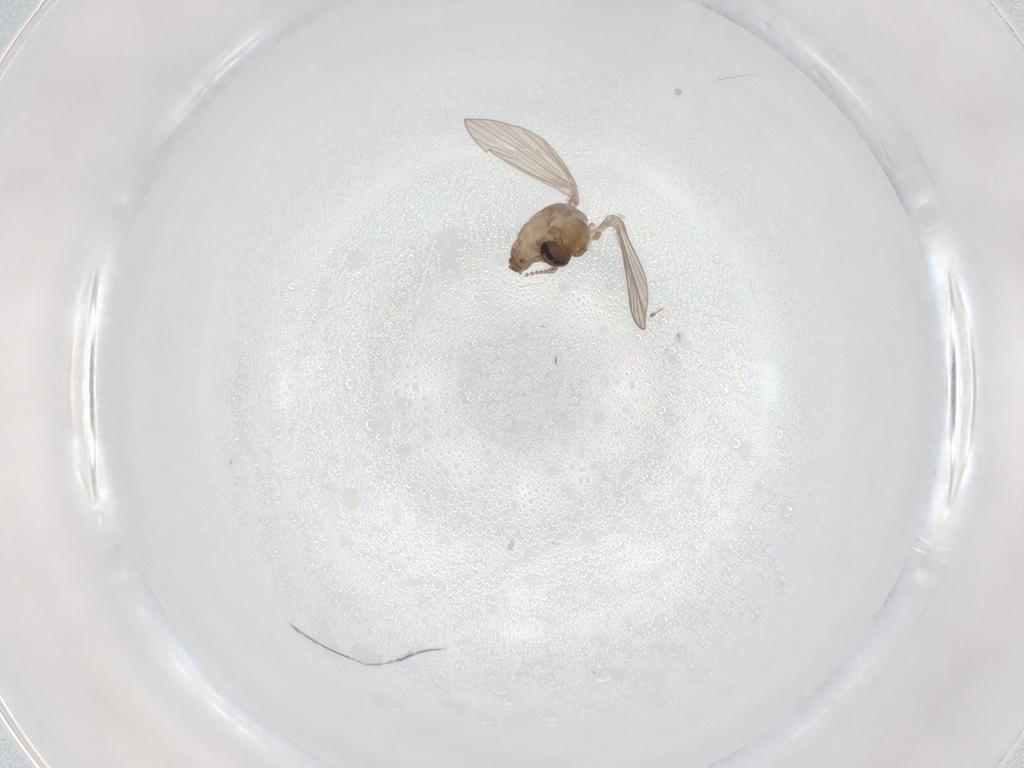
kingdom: Animalia
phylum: Arthropoda
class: Insecta
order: Diptera
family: Psychodidae
